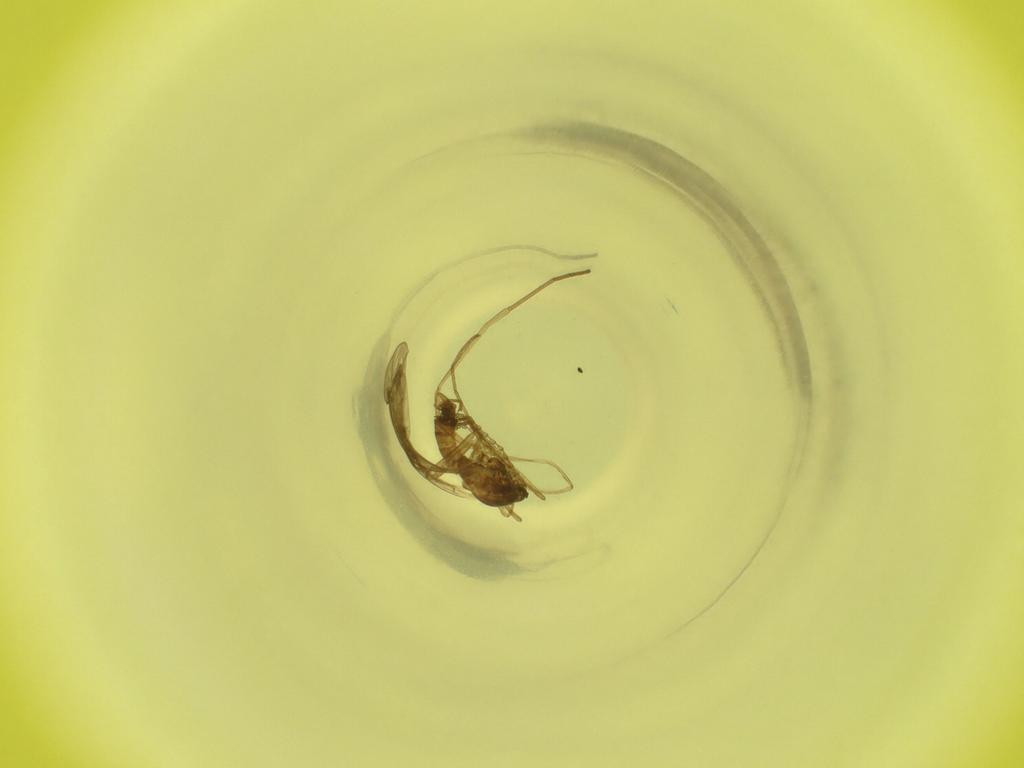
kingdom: Animalia
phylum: Arthropoda
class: Insecta
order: Diptera
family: Cecidomyiidae
